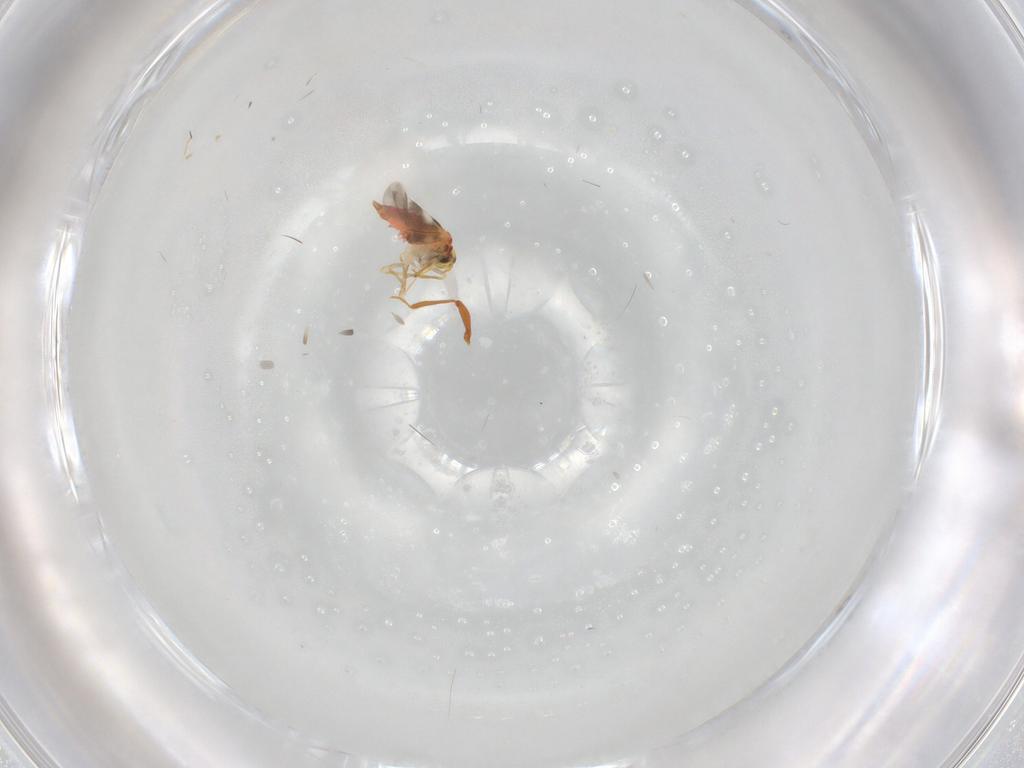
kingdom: Animalia
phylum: Arthropoda
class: Insecta
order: Hemiptera
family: Aleyrodidae
